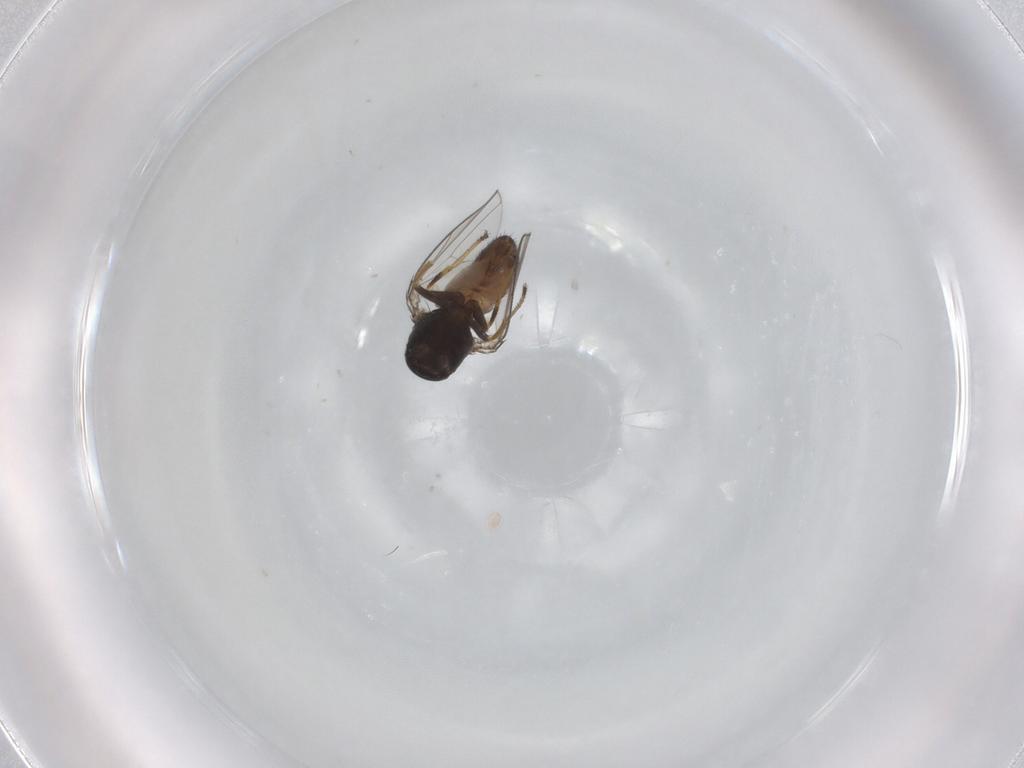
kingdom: Animalia
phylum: Arthropoda
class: Insecta
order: Diptera
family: Ephydridae
